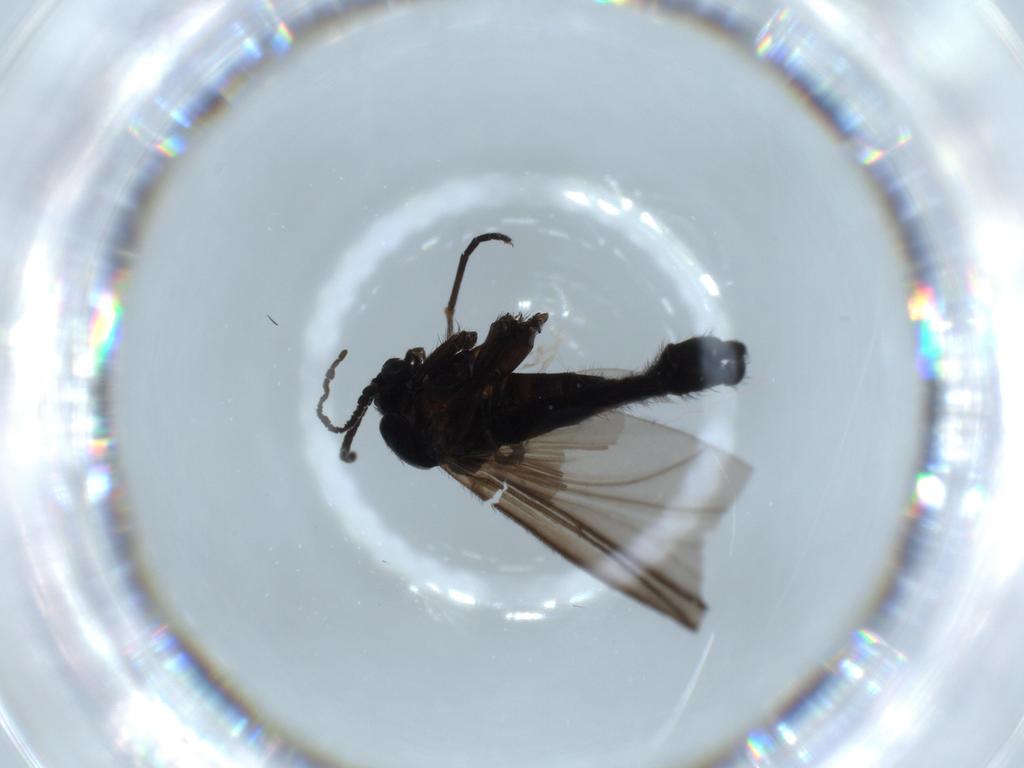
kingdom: Animalia
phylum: Arthropoda
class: Insecta
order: Diptera
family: Chloropidae
